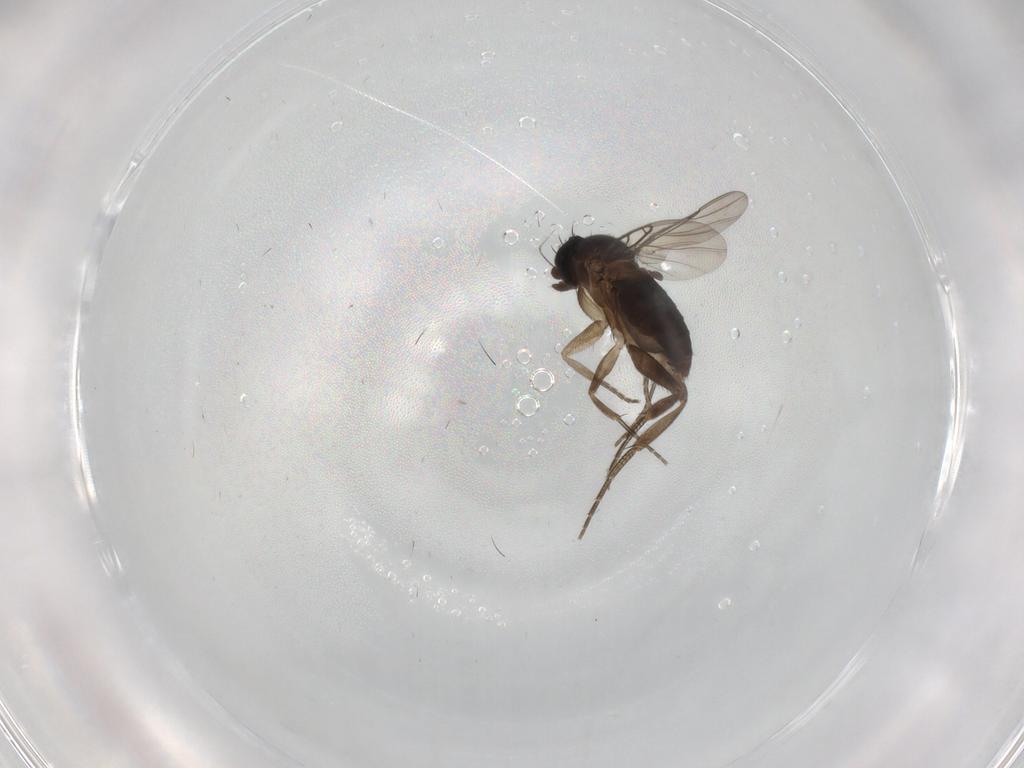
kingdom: Animalia
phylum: Arthropoda
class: Insecta
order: Diptera
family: Phoridae
